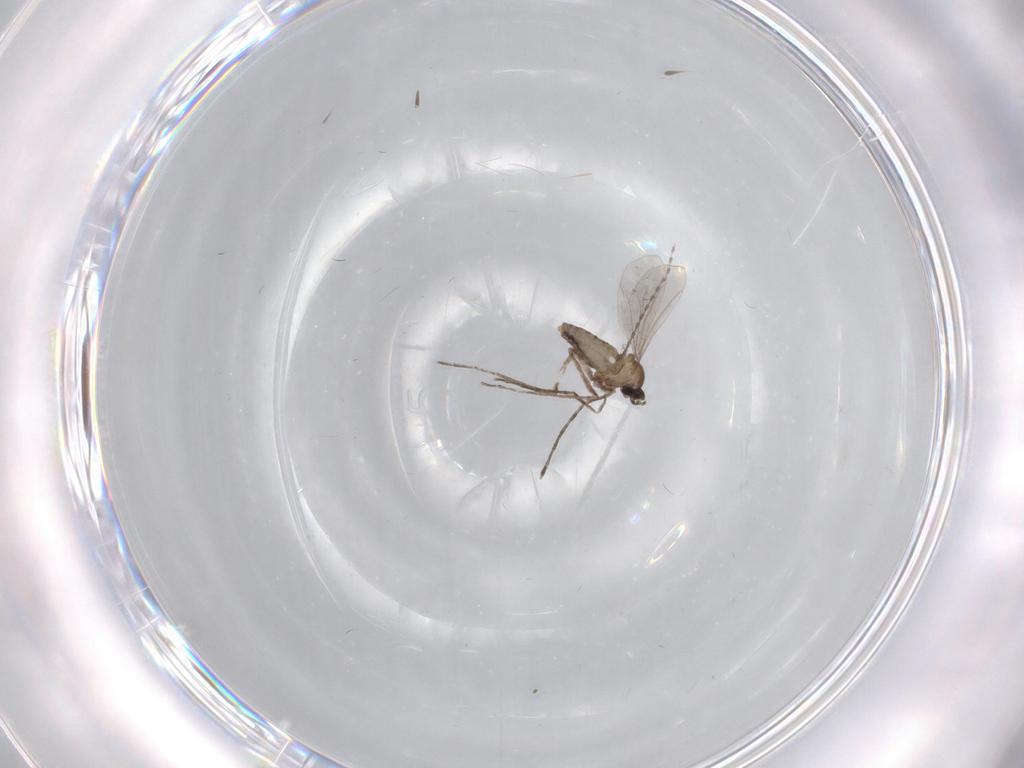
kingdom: Animalia
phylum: Arthropoda
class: Insecta
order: Diptera
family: Cecidomyiidae
